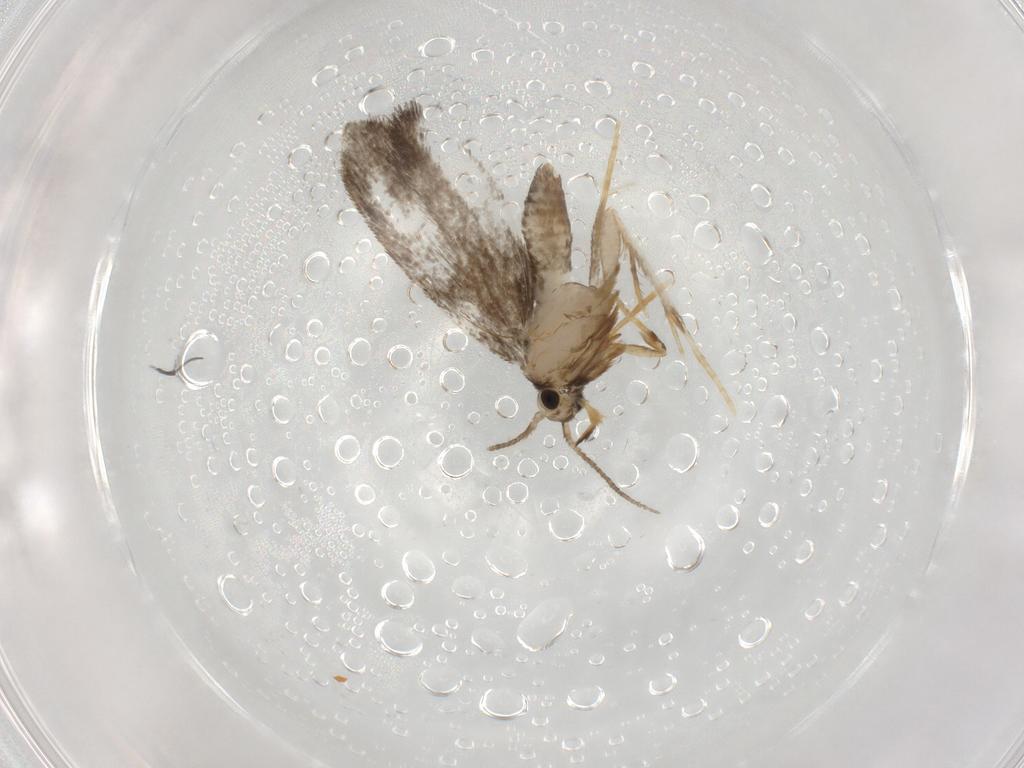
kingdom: Animalia
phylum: Arthropoda
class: Insecta
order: Lepidoptera
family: Psychidae
